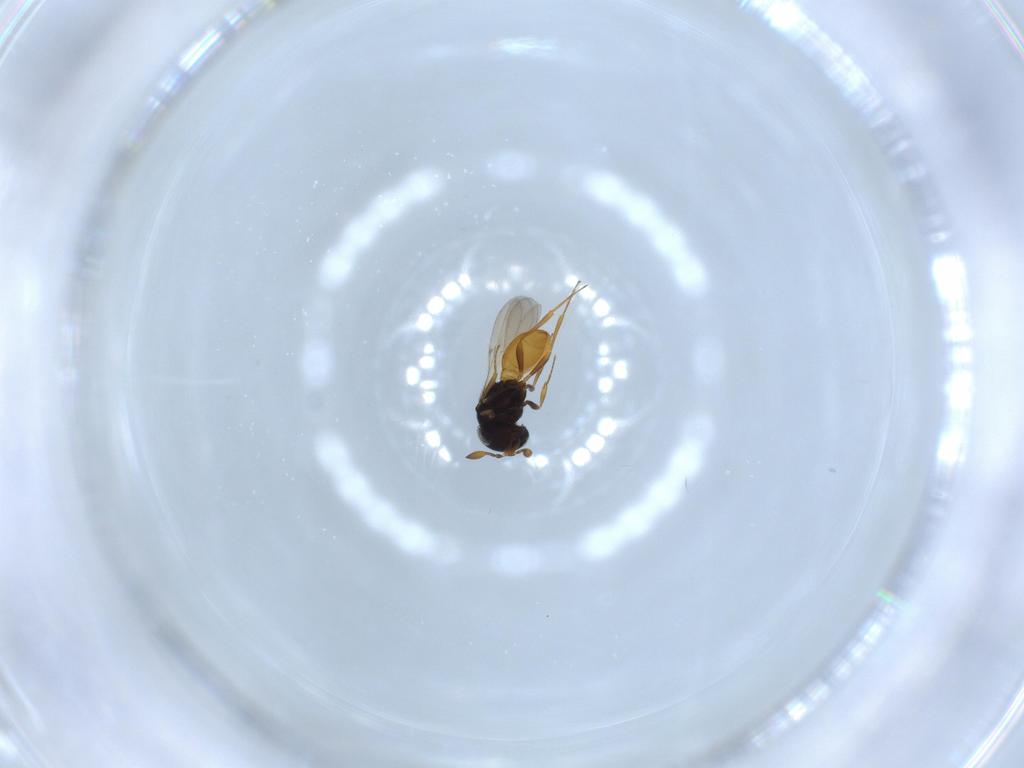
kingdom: Animalia
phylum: Arthropoda
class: Insecta
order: Hymenoptera
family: Scelionidae
